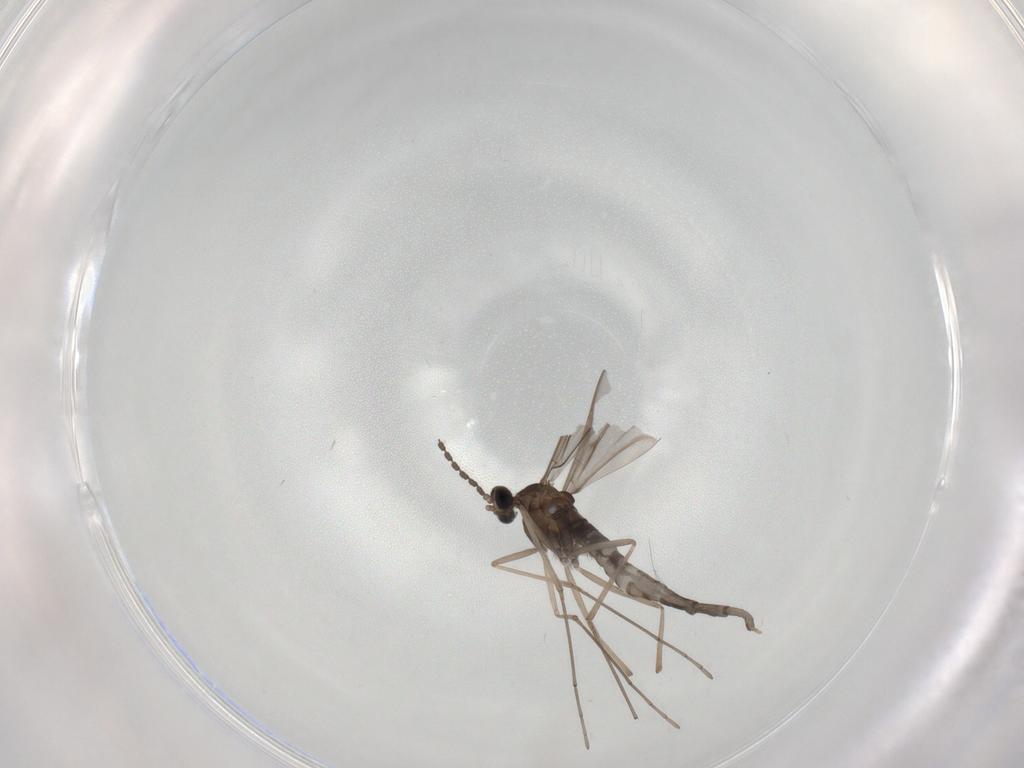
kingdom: Animalia
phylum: Arthropoda
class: Insecta
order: Diptera
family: Drosophilidae
